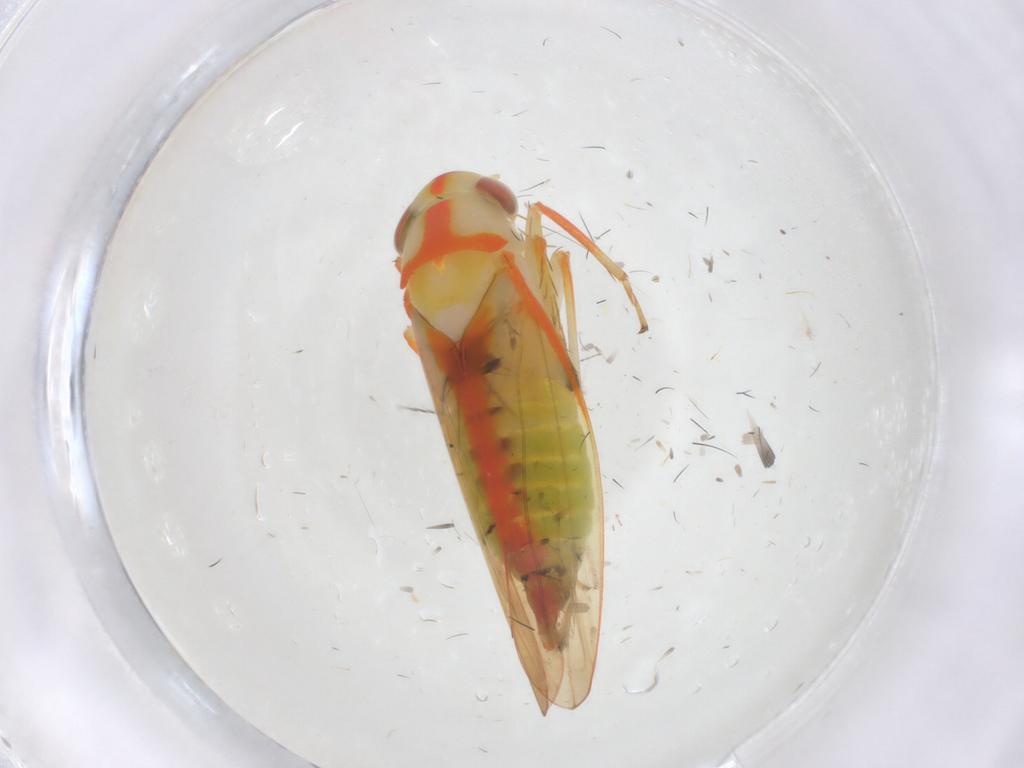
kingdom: Animalia
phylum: Arthropoda
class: Insecta
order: Hemiptera
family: Cicadellidae
